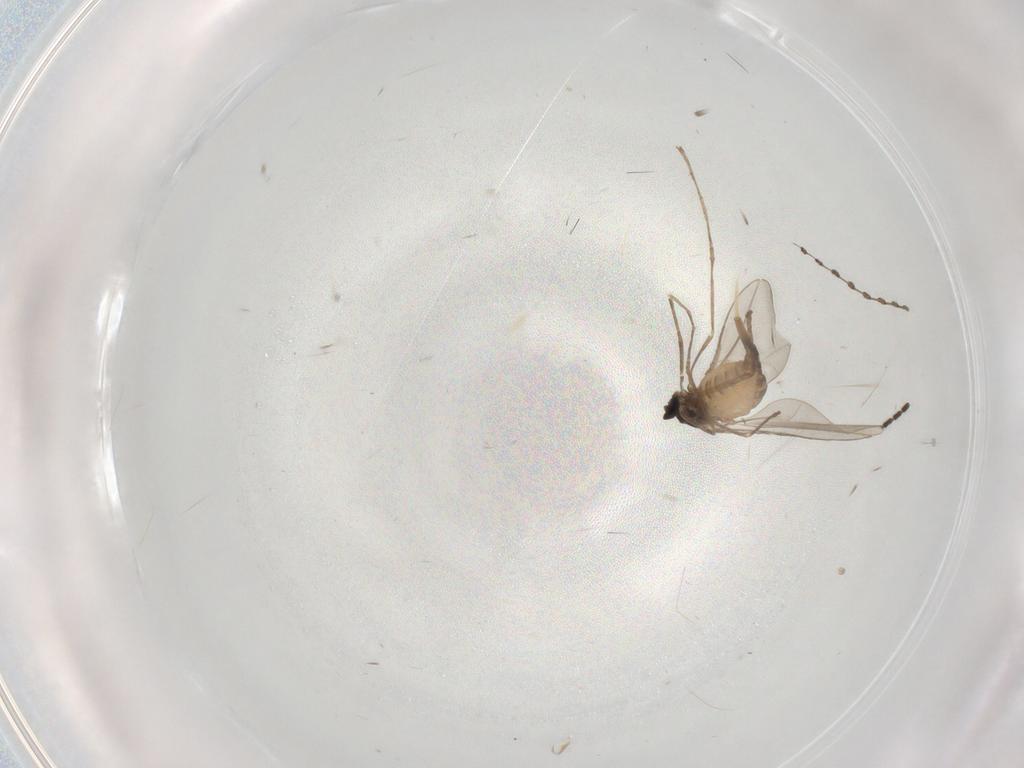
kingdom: Animalia
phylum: Arthropoda
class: Insecta
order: Diptera
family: Cecidomyiidae
